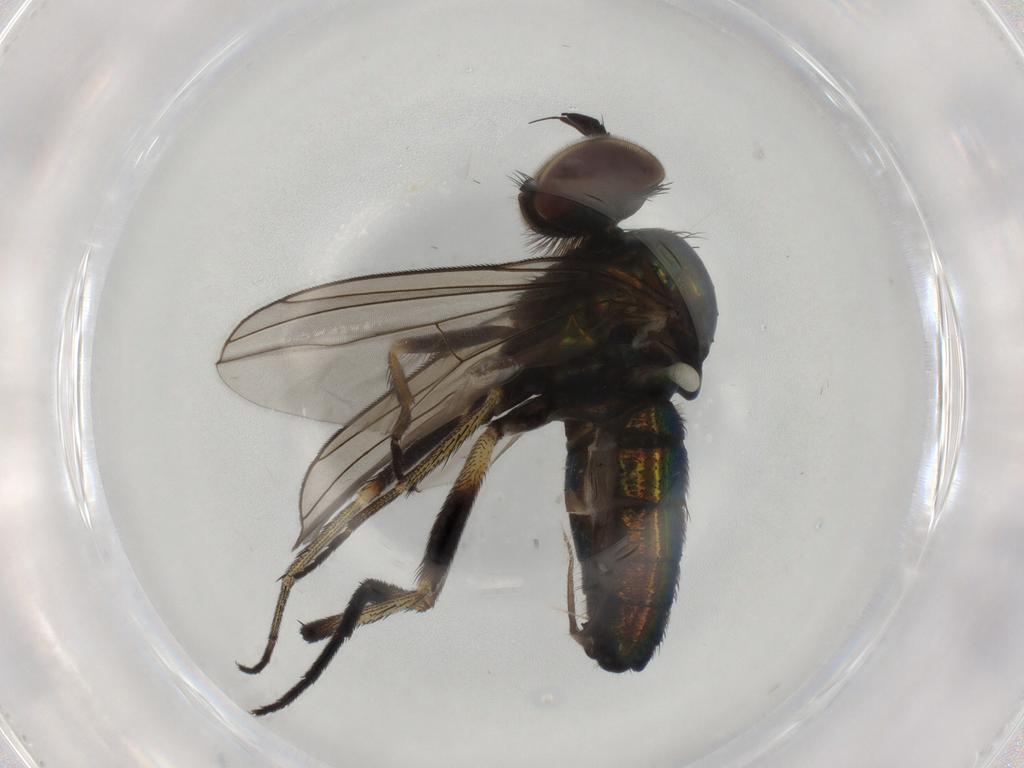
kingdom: Animalia
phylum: Arthropoda
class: Insecta
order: Diptera
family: Dolichopodidae
